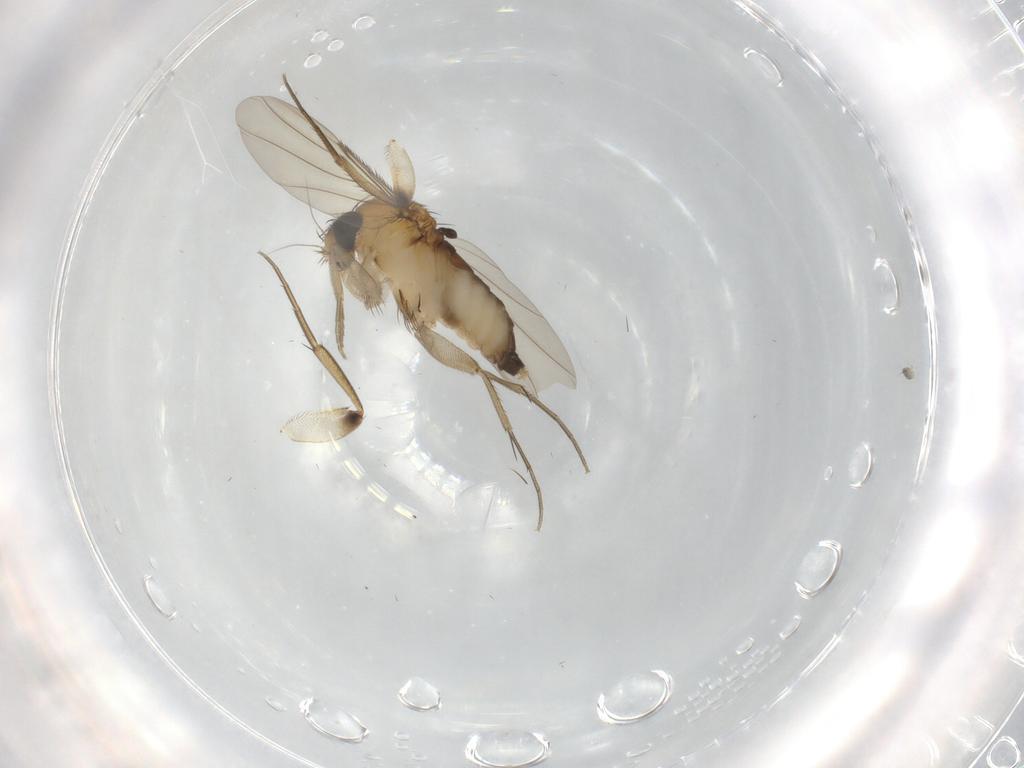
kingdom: Animalia
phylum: Arthropoda
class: Insecta
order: Diptera
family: Phoridae
